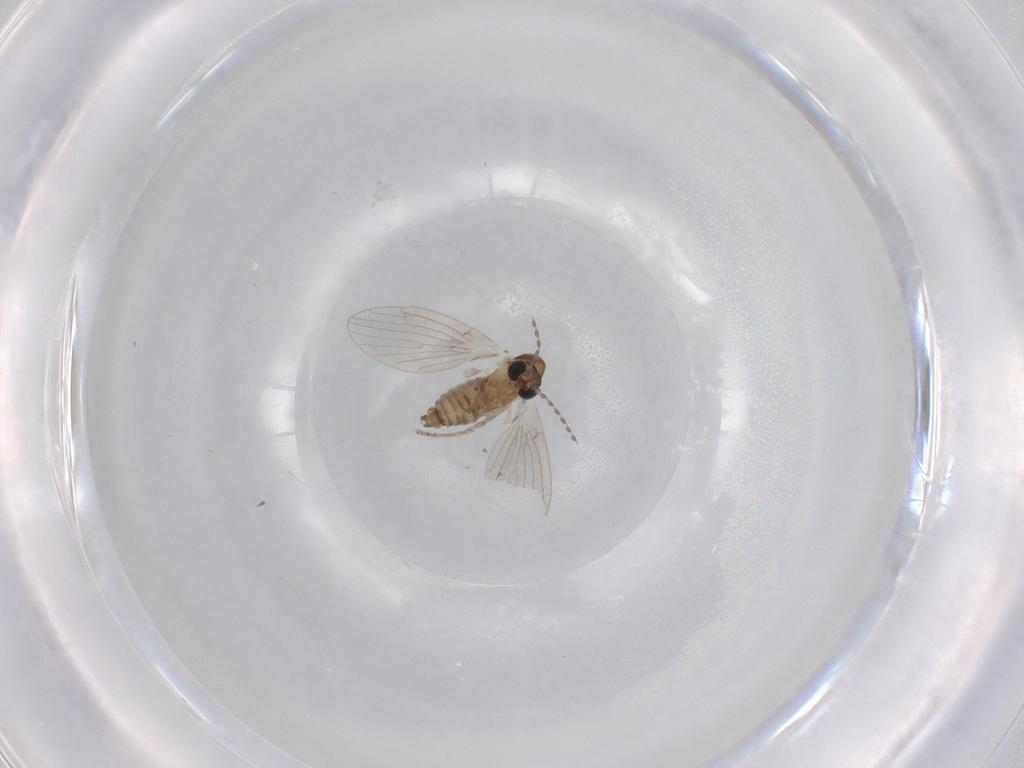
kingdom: Animalia
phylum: Arthropoda
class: Insecta
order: Diptera
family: Psychodidae
